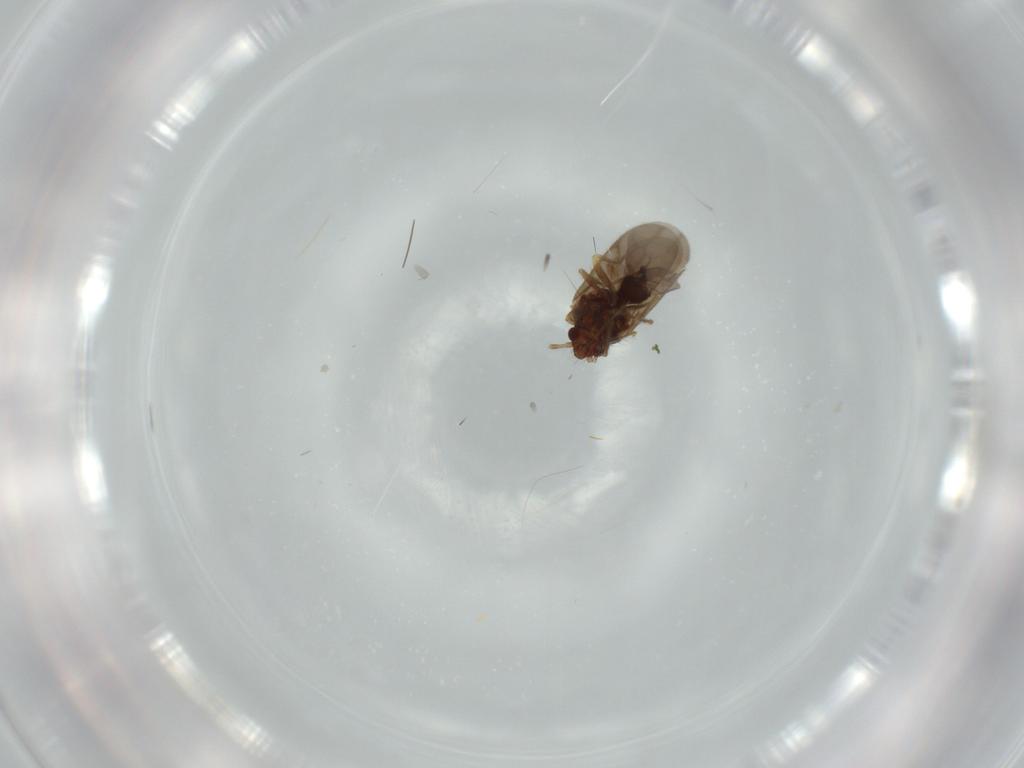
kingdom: Animalia
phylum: Arthropoda
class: Insecta
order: Hemiptera
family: Ceratocombidae
